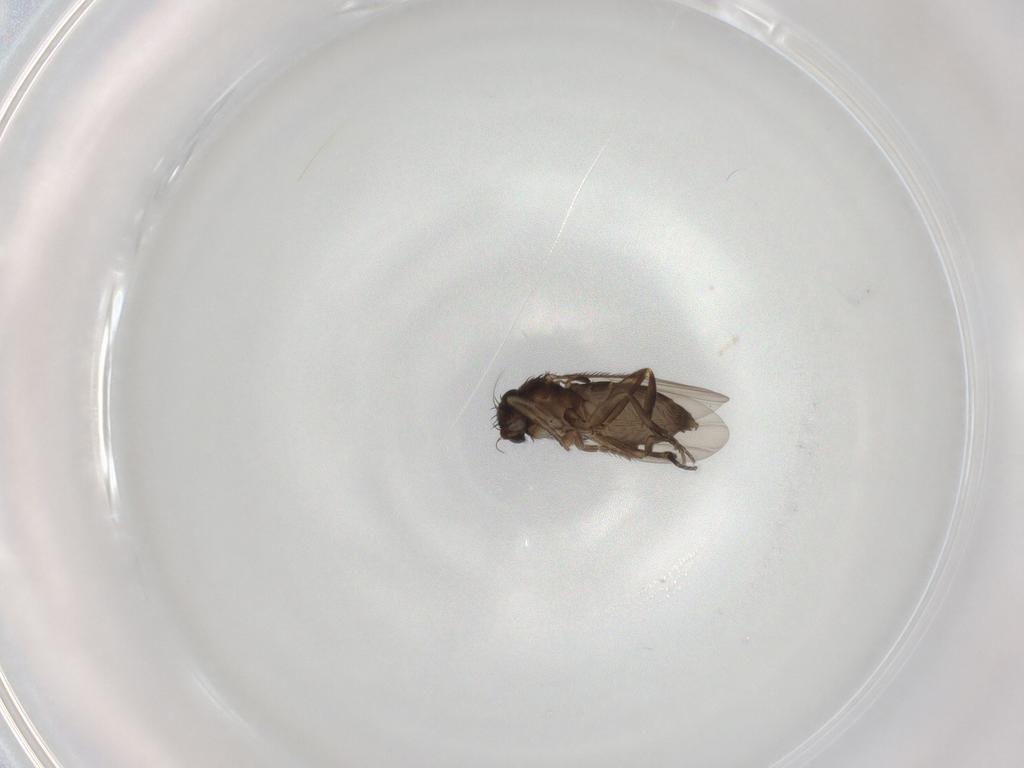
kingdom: Animalia
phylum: Arthropoda
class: Insecta
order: Diptera
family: Phoridae
